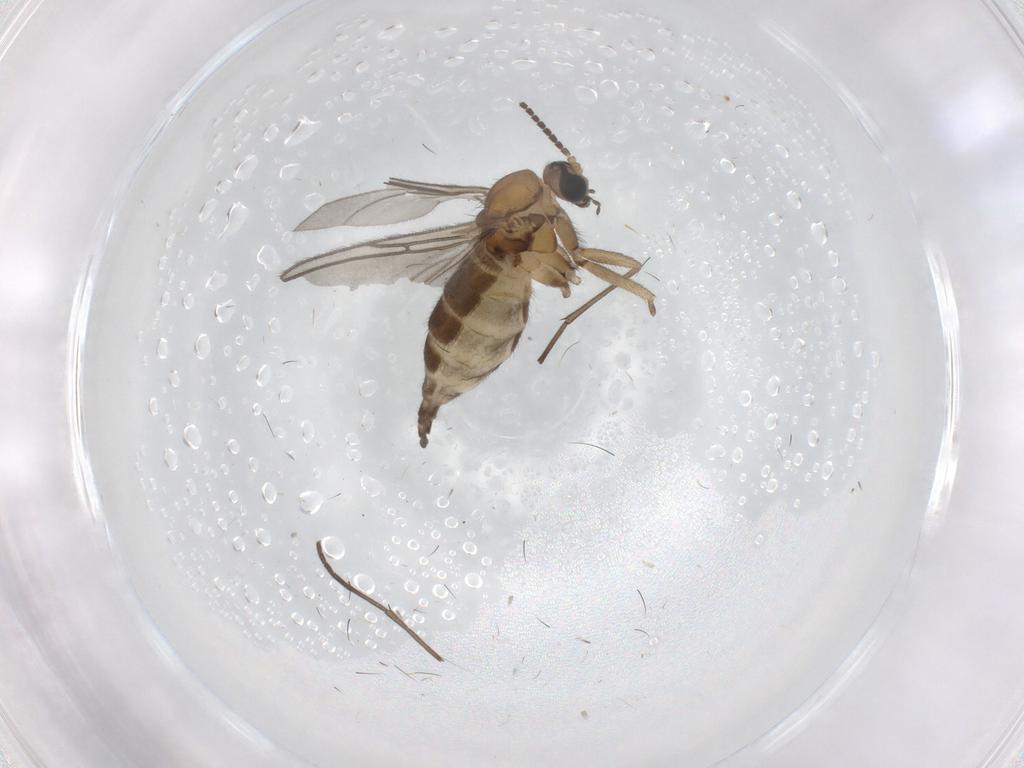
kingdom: Animalia
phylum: Arthropoda
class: Insecta
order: Diptera
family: Sciaridae
